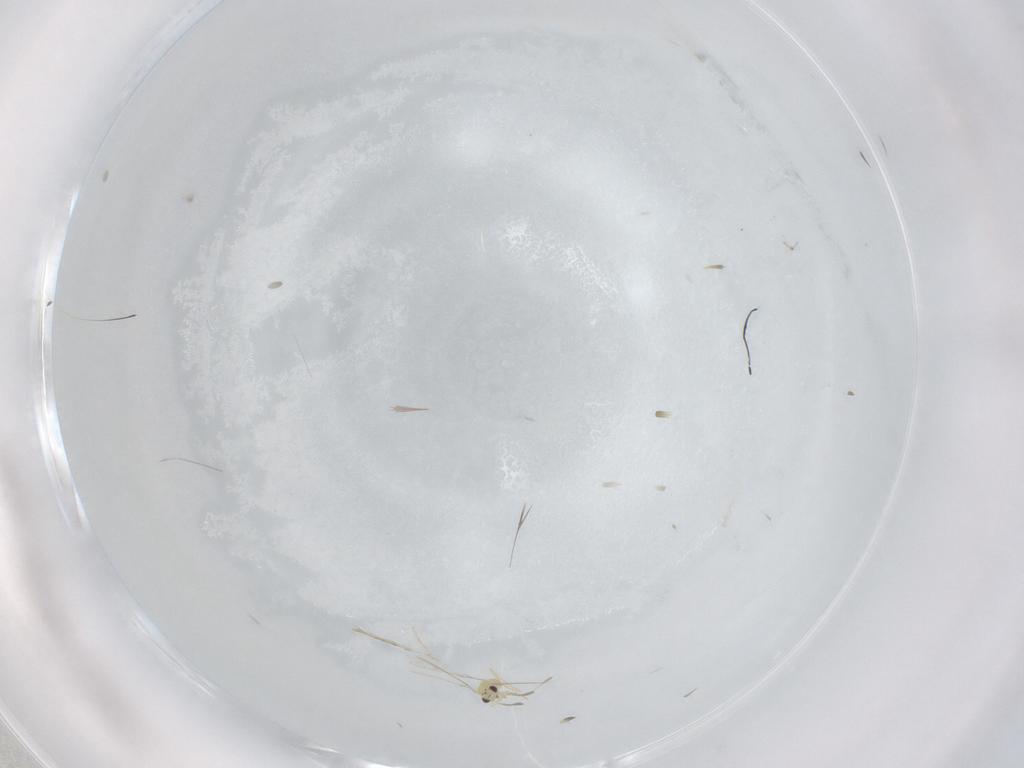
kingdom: Animalia
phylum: Arthropoda
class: Insecta
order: Hymenoptera
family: Mymaridae
